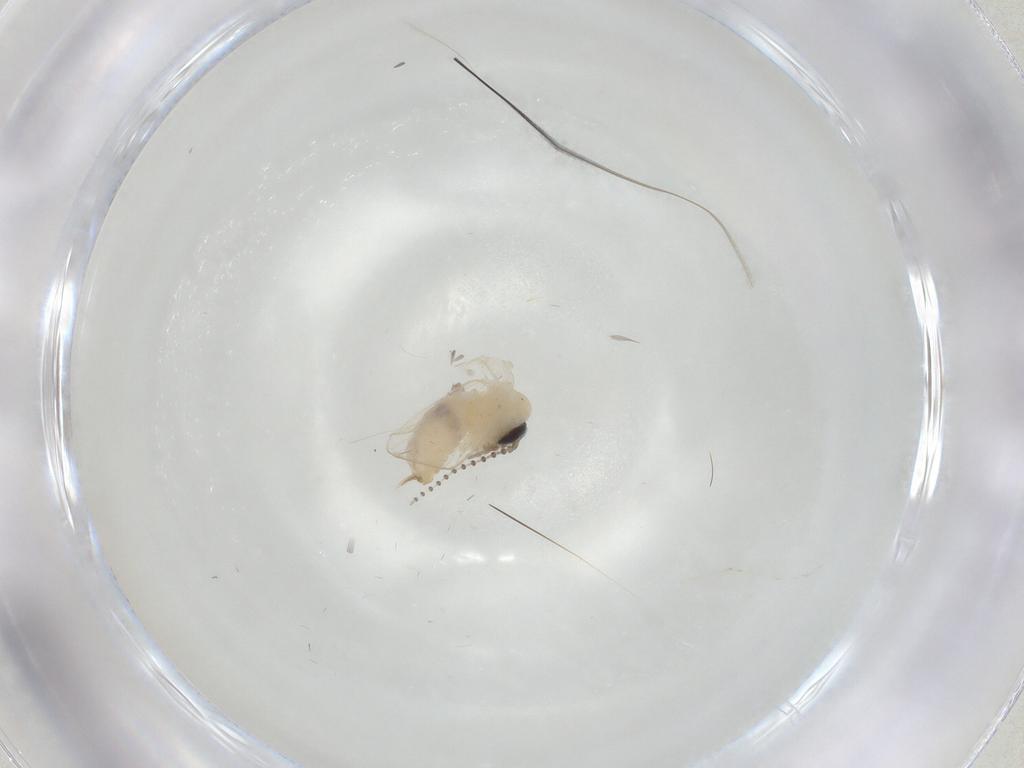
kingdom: Animalia
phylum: Arthropoda
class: Insecta
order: Diptera
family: Psychodidae
